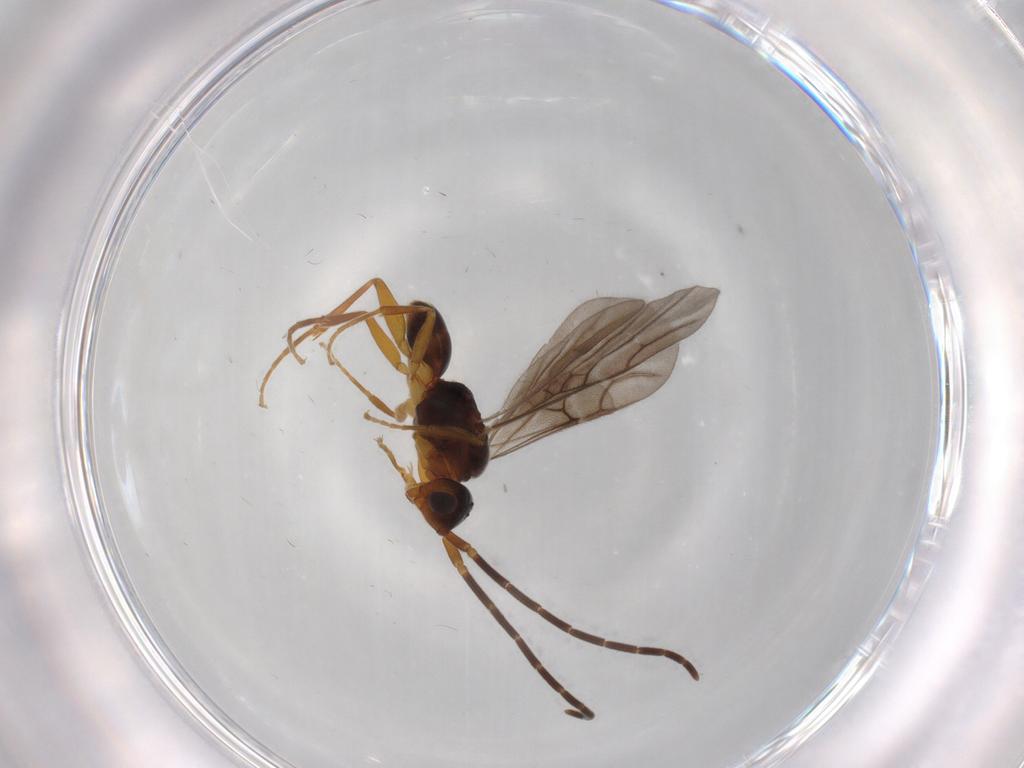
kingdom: Animalia
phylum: Arthropoda
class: Insecta
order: Hymenoptera
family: Embolemidae
